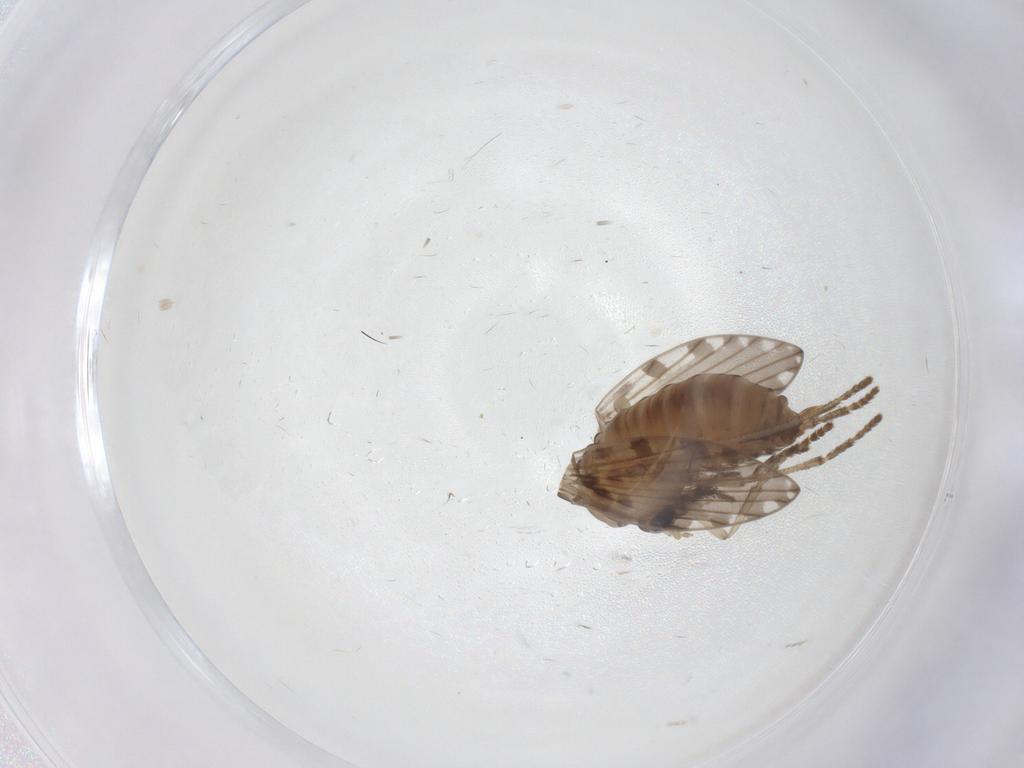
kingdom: Animalia
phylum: Arthropoda
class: Insecta
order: Diptera
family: Psychodidae
